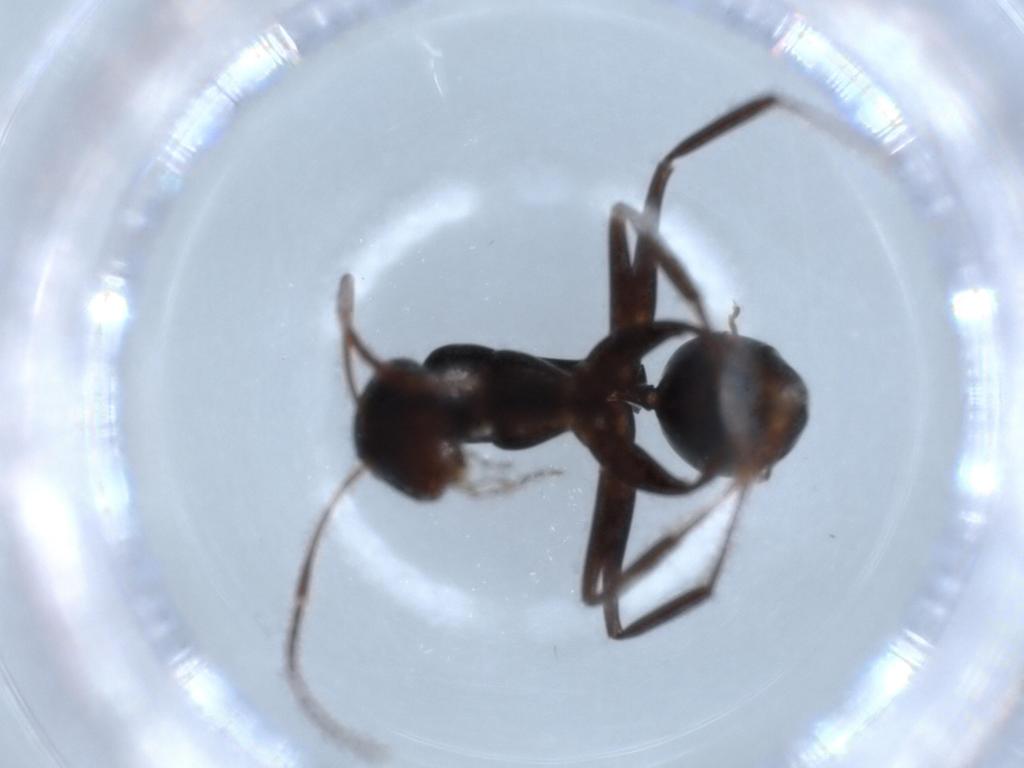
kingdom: Animalia
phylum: Arthropoda
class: Insecta
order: Hymenoptera
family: Formicidae
